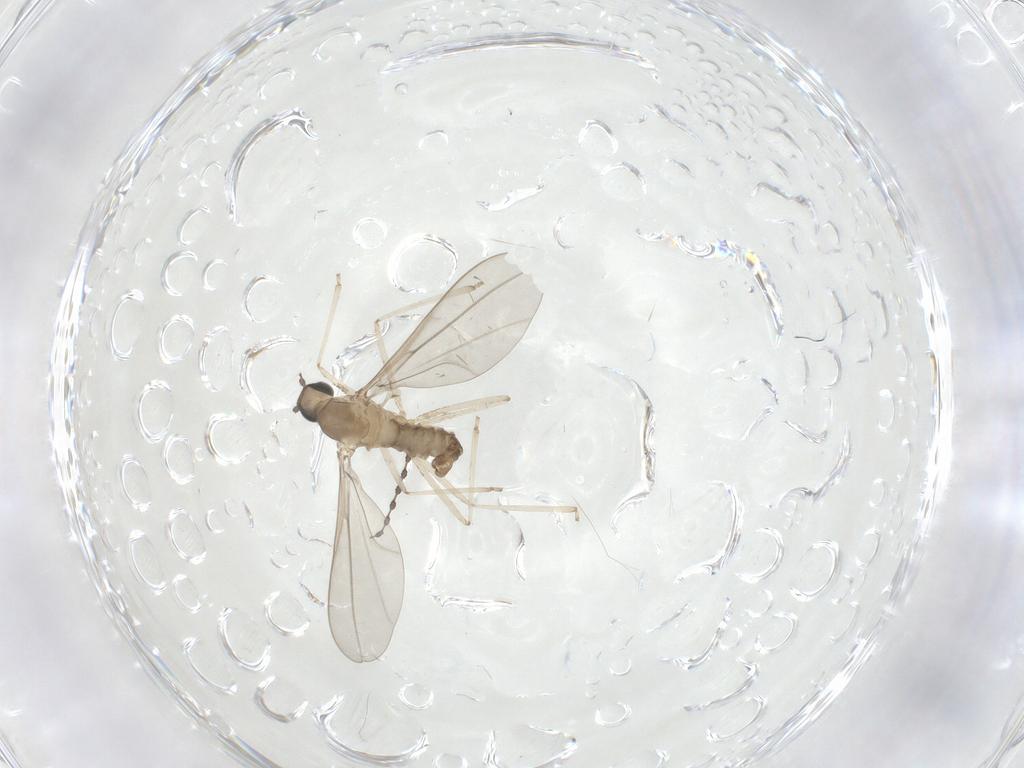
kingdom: Animalia
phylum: Arthropoda
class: Insecta
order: Diptera
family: Cecidomyiidae
